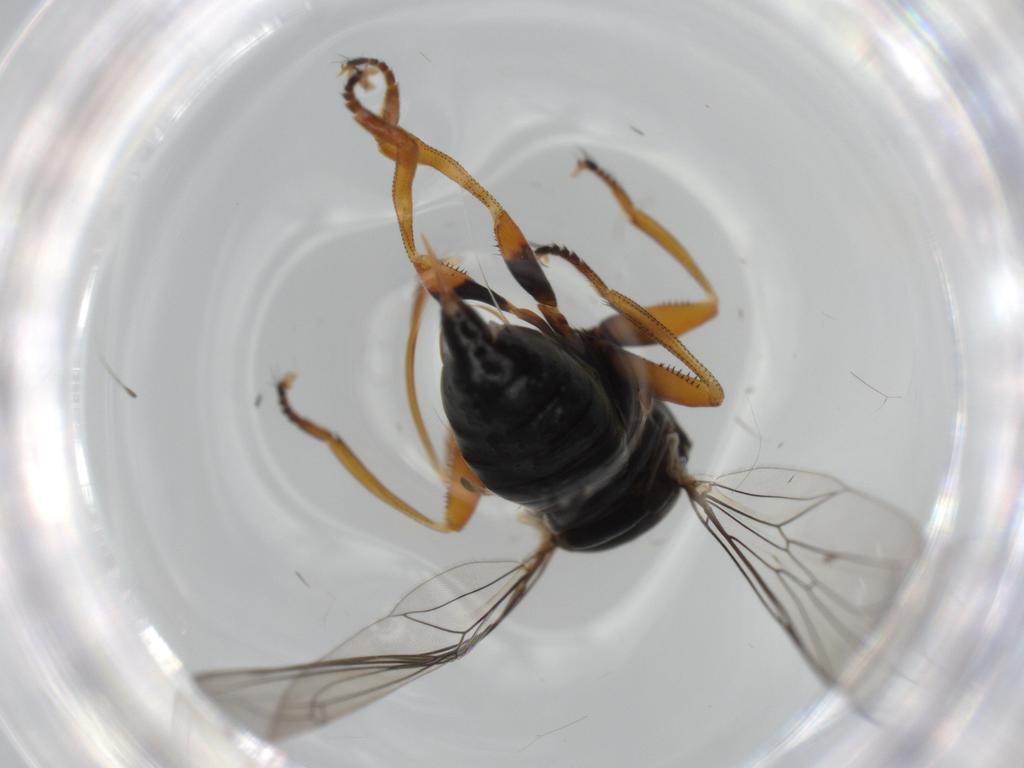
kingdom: Animalia
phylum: Arthropoda
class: Insecta
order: Diptera
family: Pipunculidae
